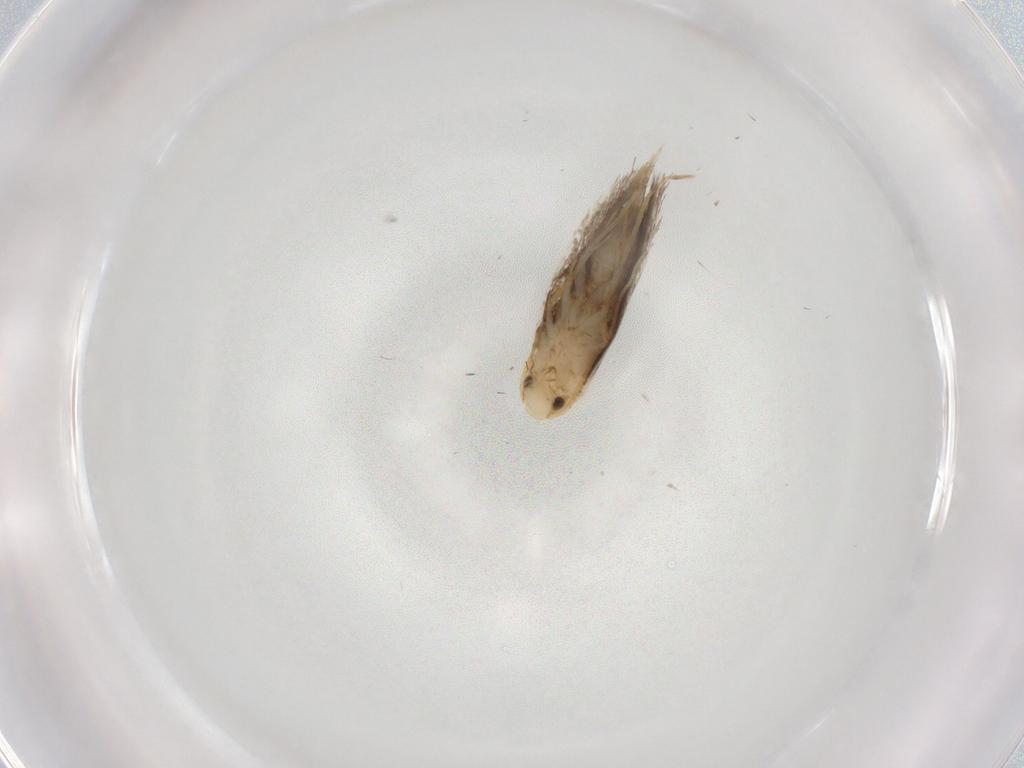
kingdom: Animalia
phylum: Arthropoda
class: Insecta
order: Lepidoptera
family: Tineidae
